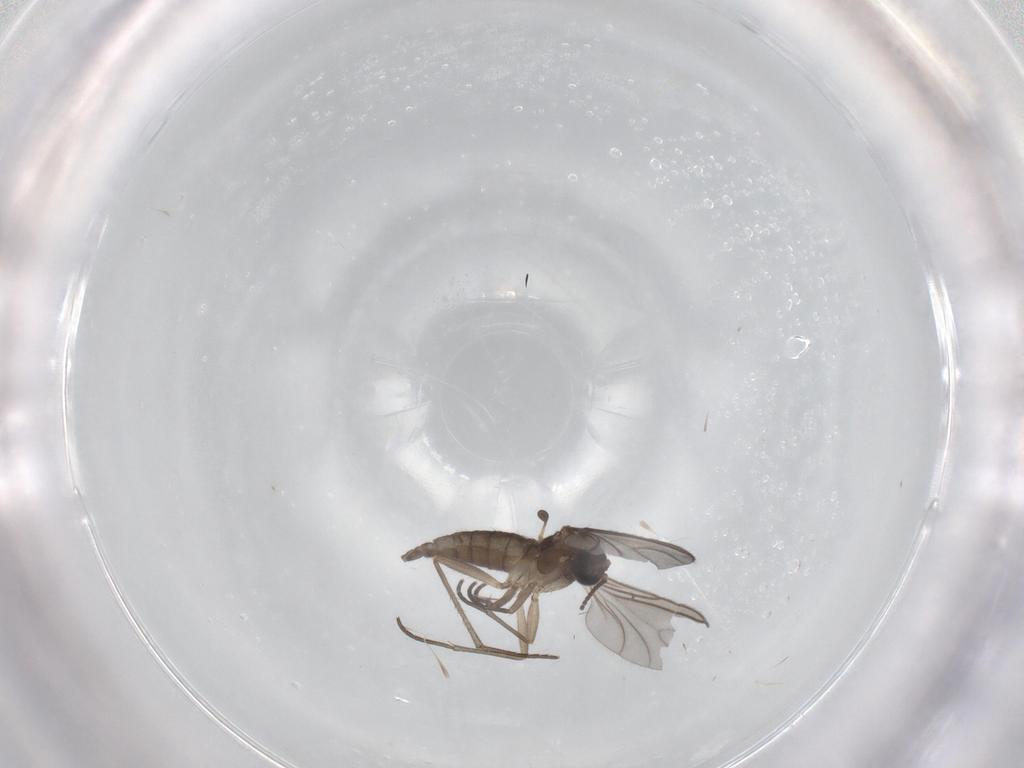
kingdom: Animalia
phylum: Arthropoda
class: Insecta
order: Diptera
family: Sciaridae
